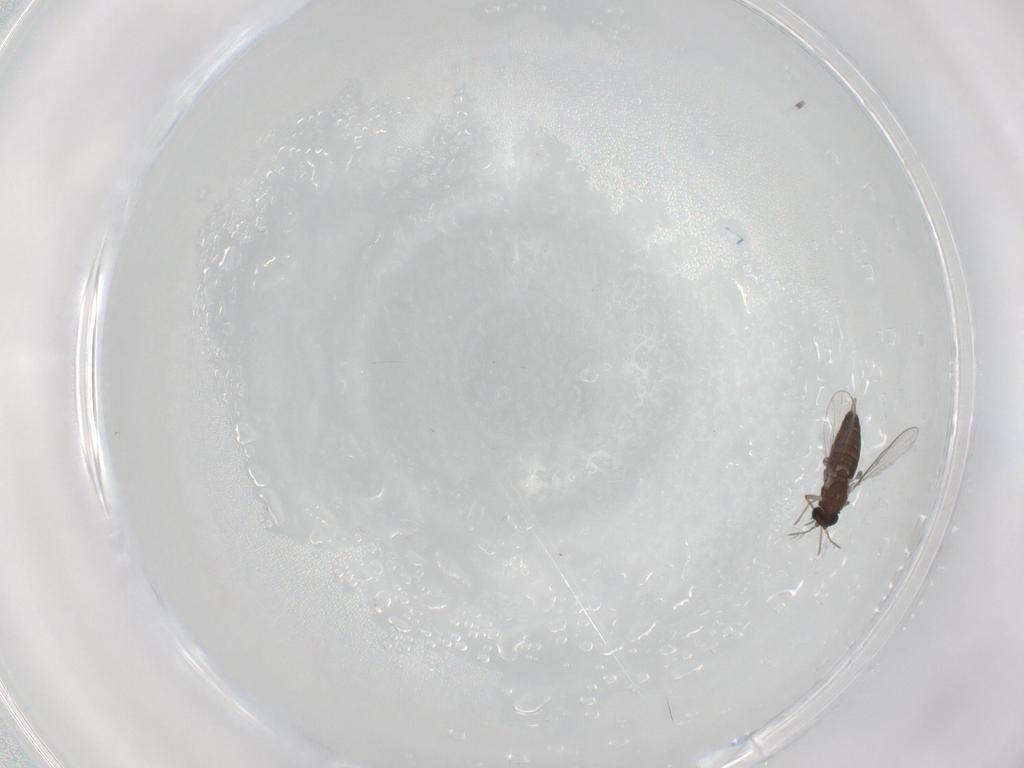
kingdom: Animalia
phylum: Arthropoda
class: Insecta
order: Diptera
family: Chironomidae
